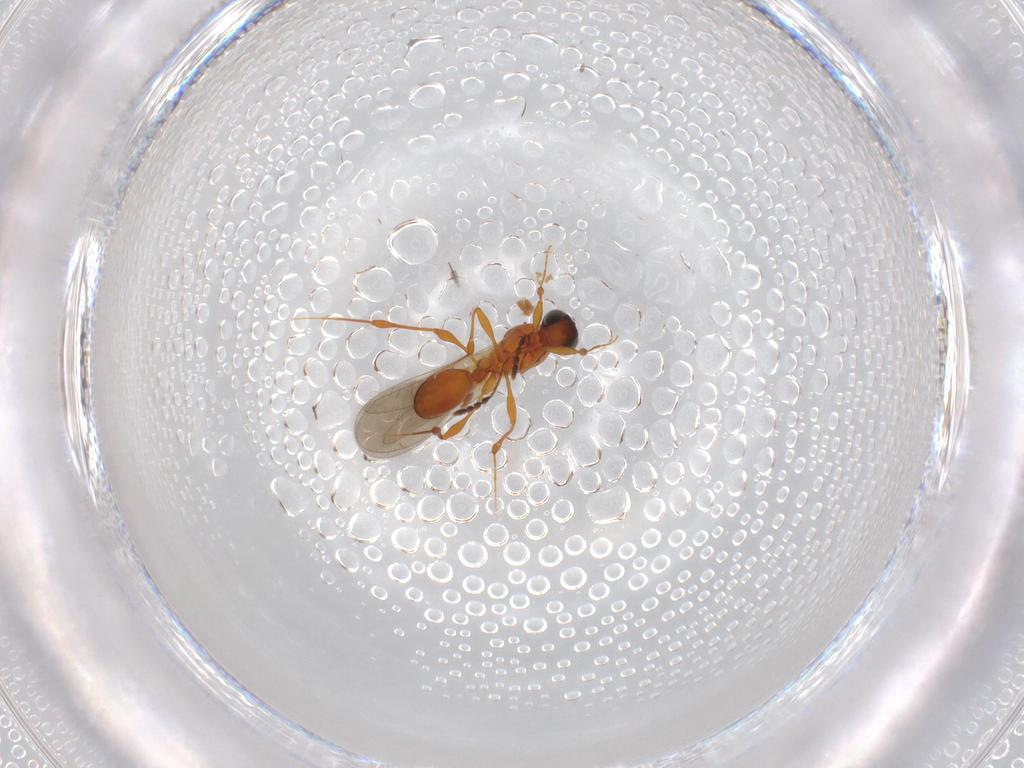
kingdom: Animalia
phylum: Arthropoda
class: Insecta
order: Hymenoptera
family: Platygastridae
